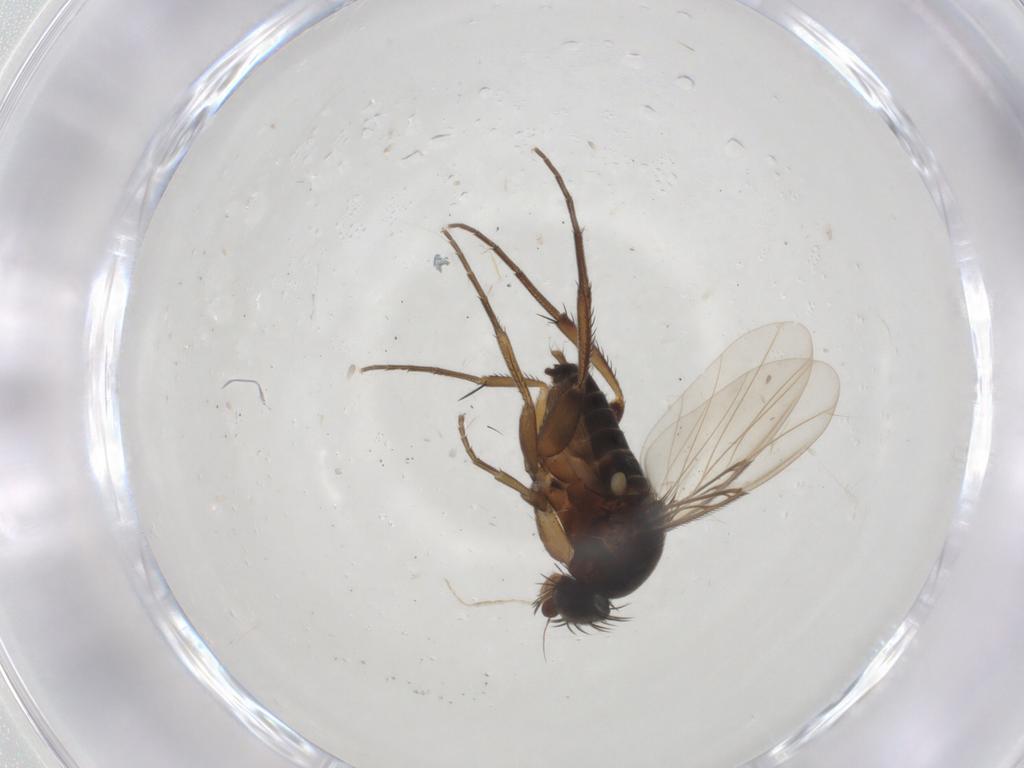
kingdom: Animalia
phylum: Arthropoda
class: Insecta
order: Diptera
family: Phoridae
